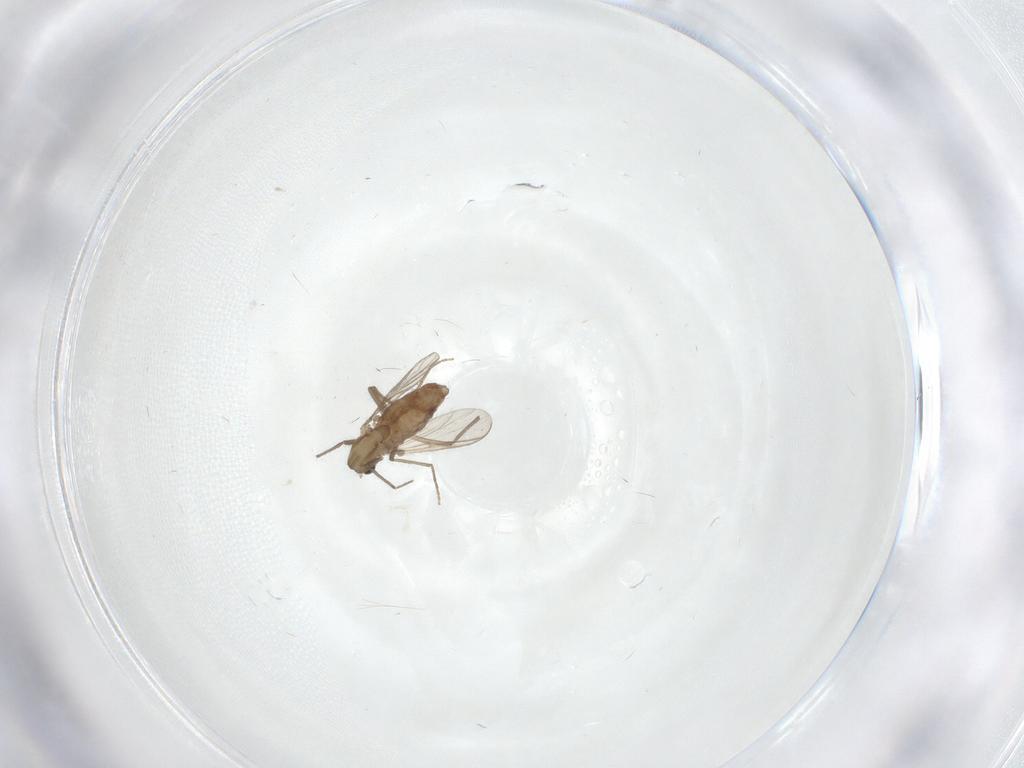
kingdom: Animalia
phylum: Arthropoda
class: Insecta
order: Diptera
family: Chironomidae
